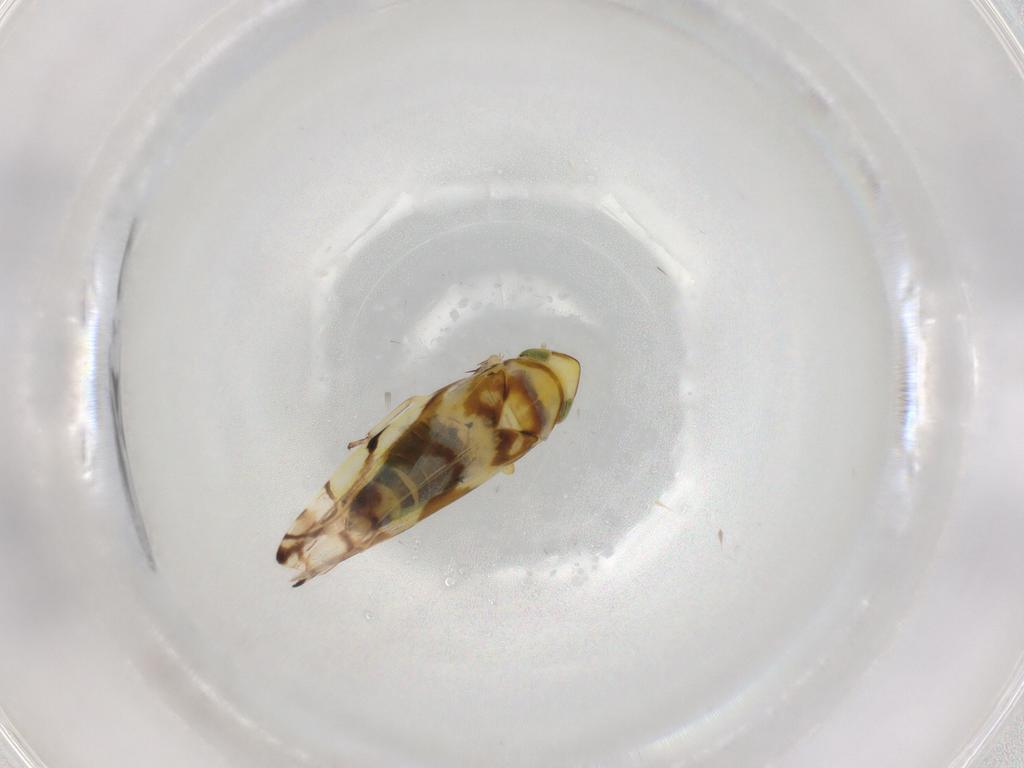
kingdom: Animalia
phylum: Arthropoda
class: Insecta
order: Hemiptera
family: Cicadellidae
